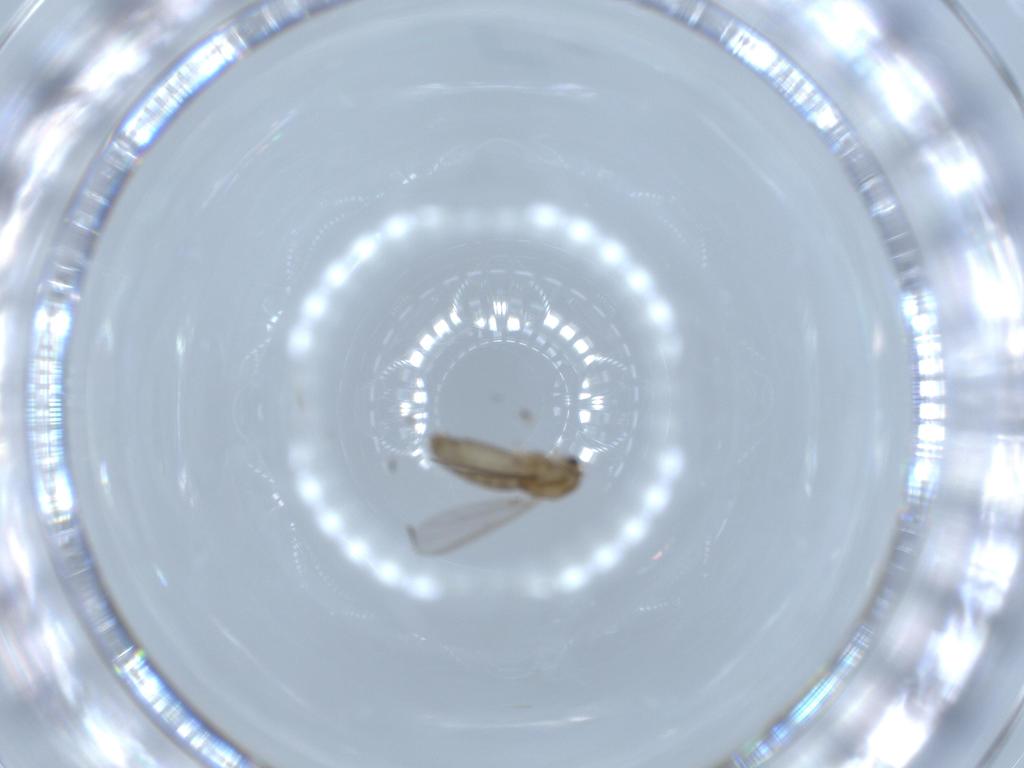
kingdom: Animalia
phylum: Arthropoda
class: Insecta
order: Diptera
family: Chironomidae
